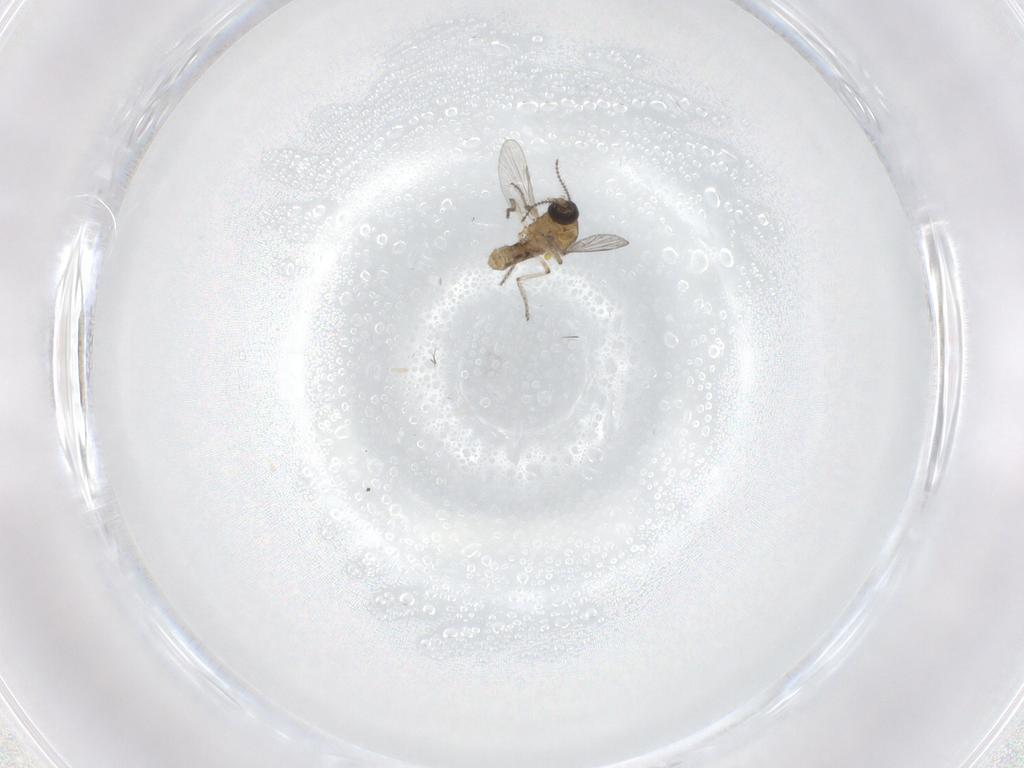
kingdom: Animalia
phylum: Arthropoda
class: Insecta
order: Diptera
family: Ceratopogonidae
